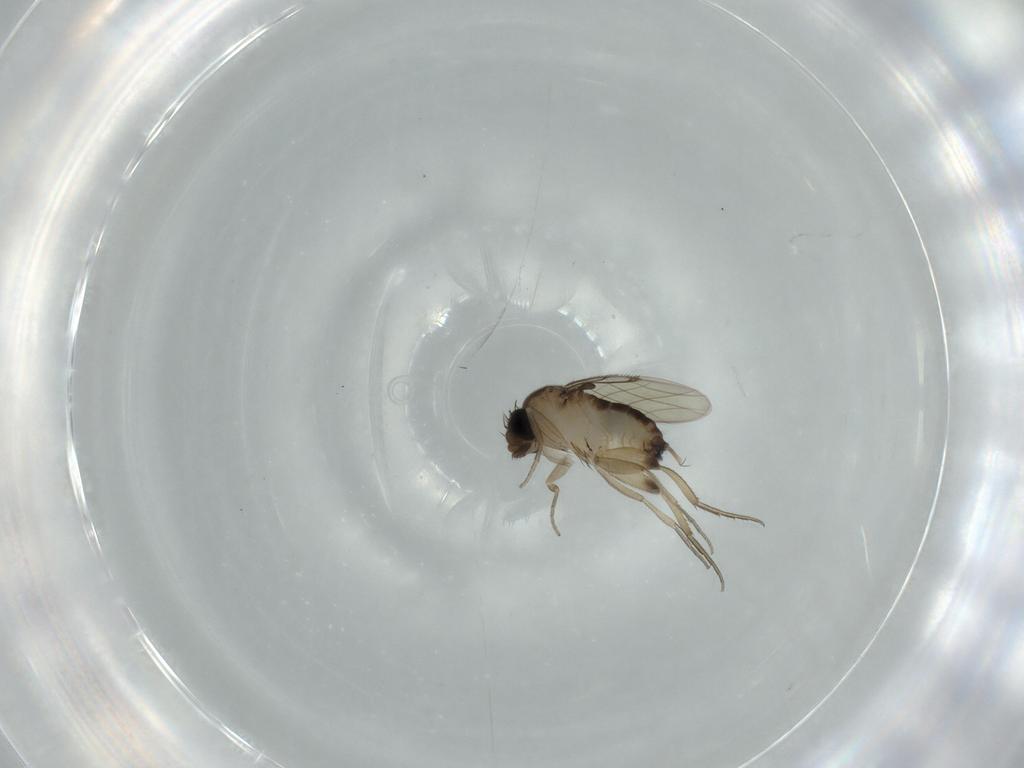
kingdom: Animalia
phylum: Arthropoda
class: Insecta
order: Diptera
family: Phoridae
